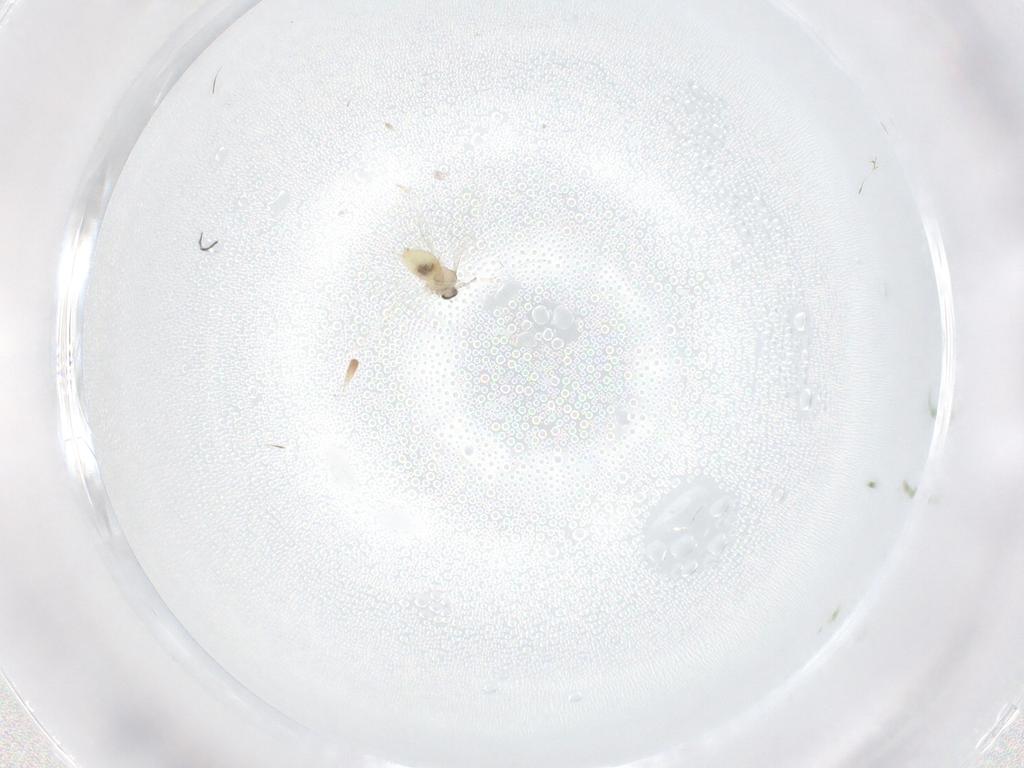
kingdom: Animalia
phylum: Arthropoda
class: Insecta
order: Diptera
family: Cecidomyiidae
